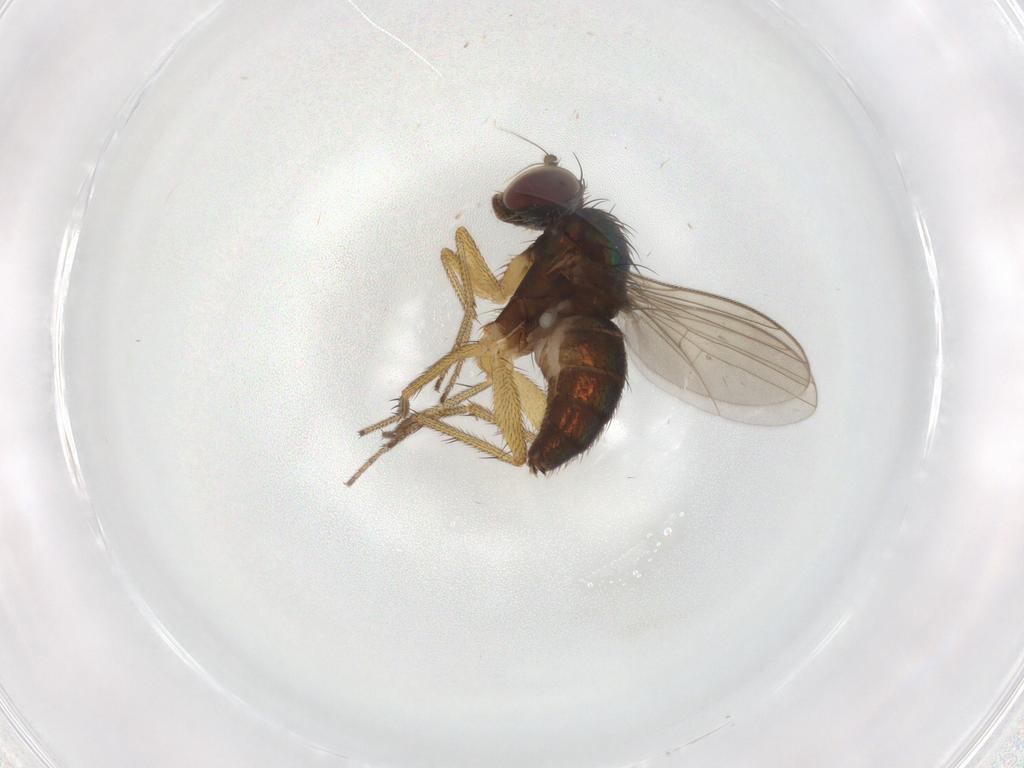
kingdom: Animalia
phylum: Arthropoda
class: Insecta
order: Diptera
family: Dolichopodidae
